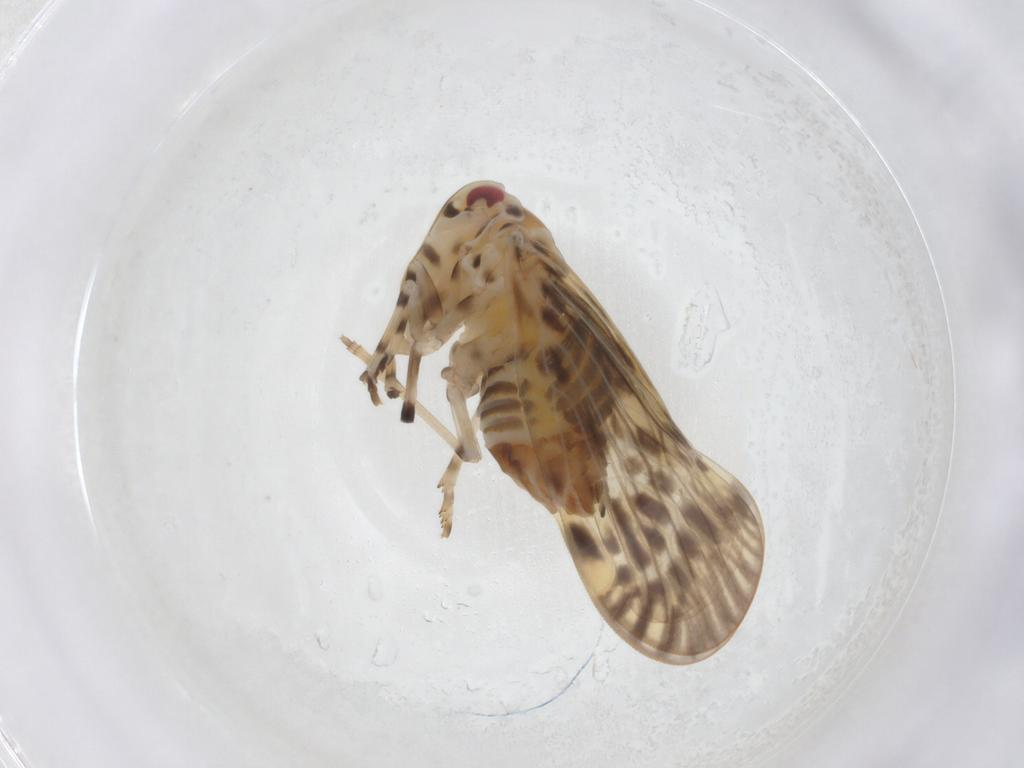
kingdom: Animalia
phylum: Arthropoda
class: Insecta
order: Hemiptera
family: Derbidae
